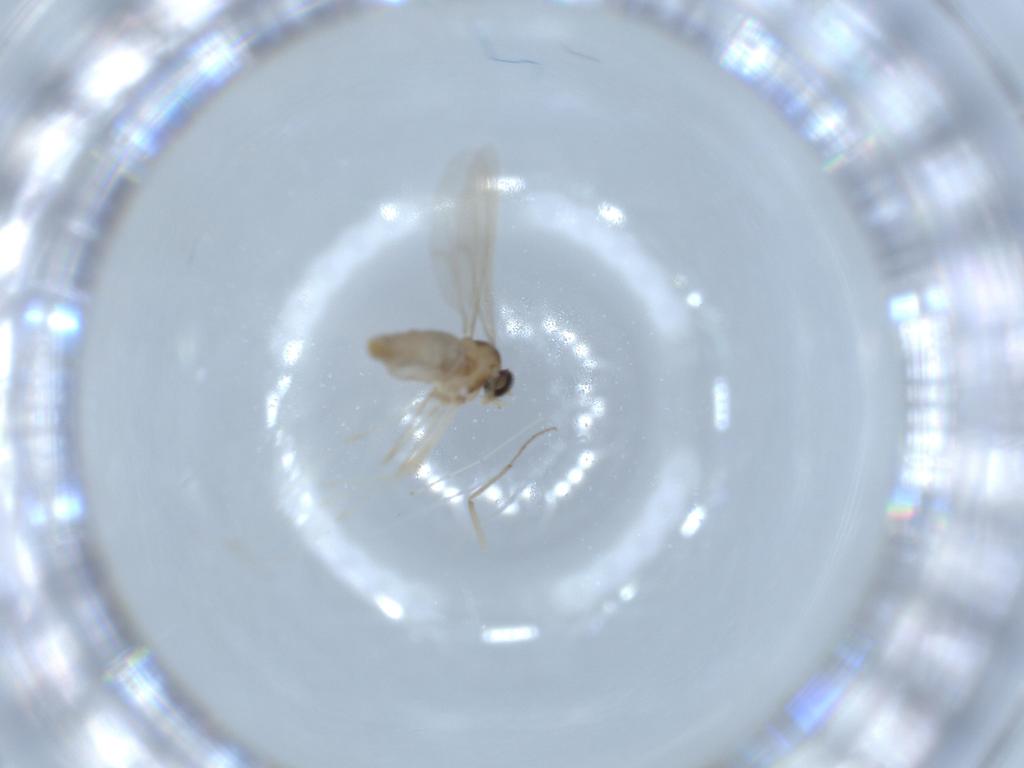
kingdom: Animalia
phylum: Arthropoda
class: Insecta
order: Diptera
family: Cecidomyiidae
